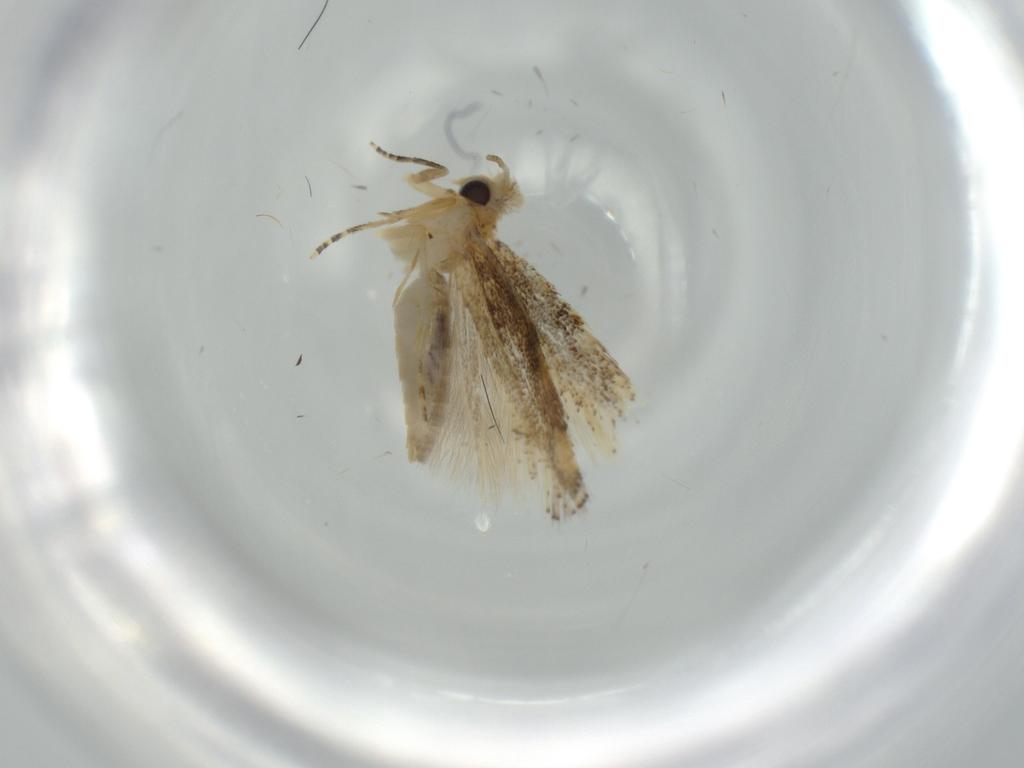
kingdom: Animalia
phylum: Arthropoda
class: Insecta
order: Lepidoptera
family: Bucculatricidae
